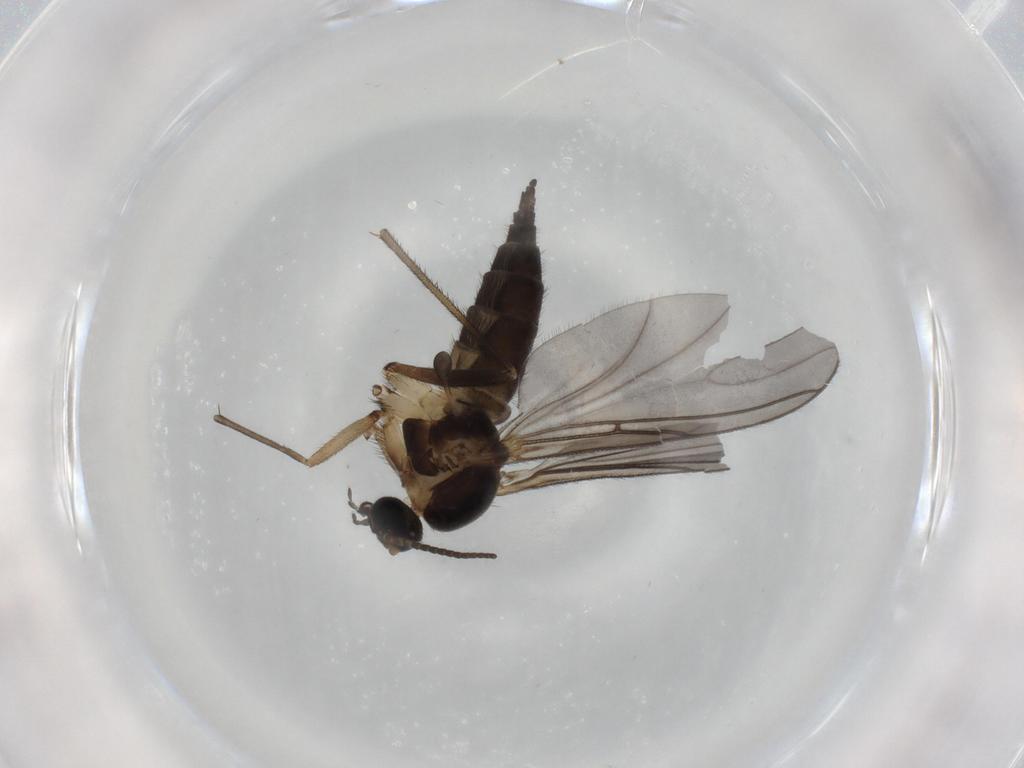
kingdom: Animalia
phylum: Arthropoda
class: Insecta
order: Diptera
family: Sciaridae
